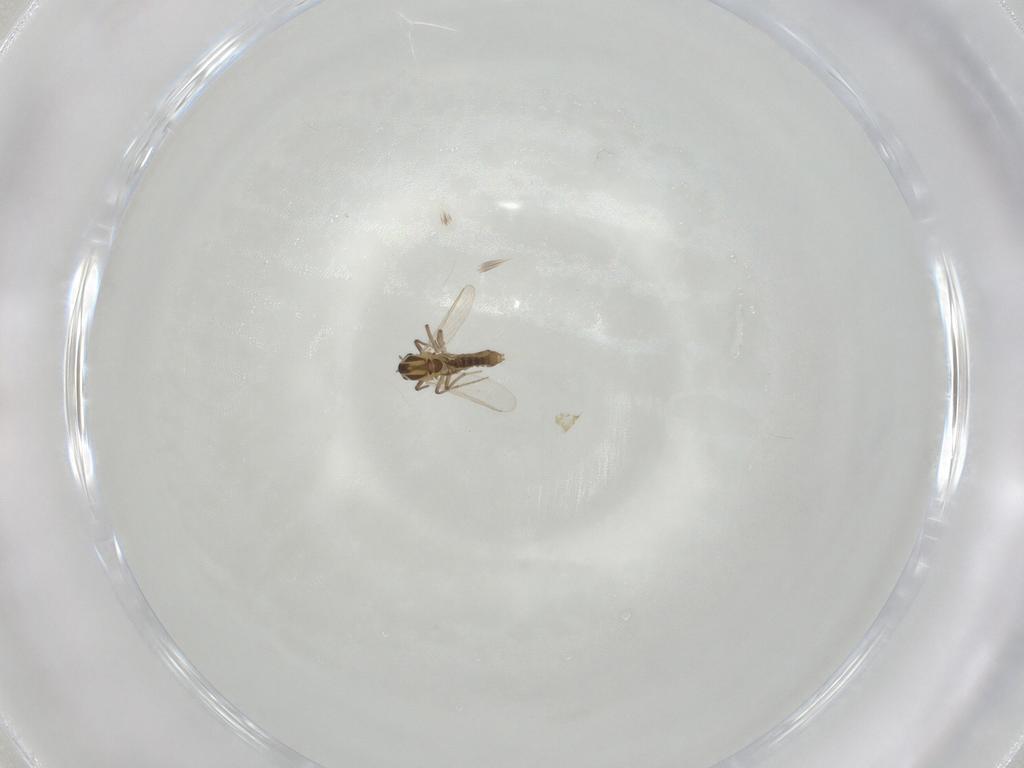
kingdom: Animalia
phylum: Arthropoda
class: Insecta
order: Diptera
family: Chironomidae
